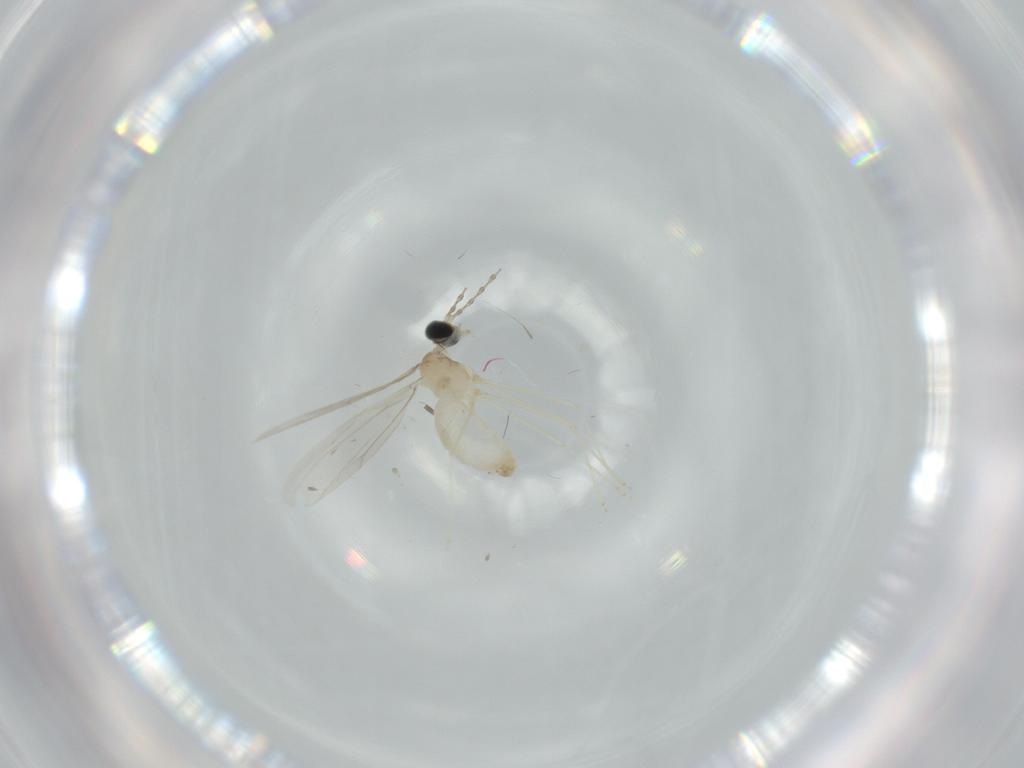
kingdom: Animalia
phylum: Arthropoda
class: Insecta
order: Diptera
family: Cecidomyiidae
